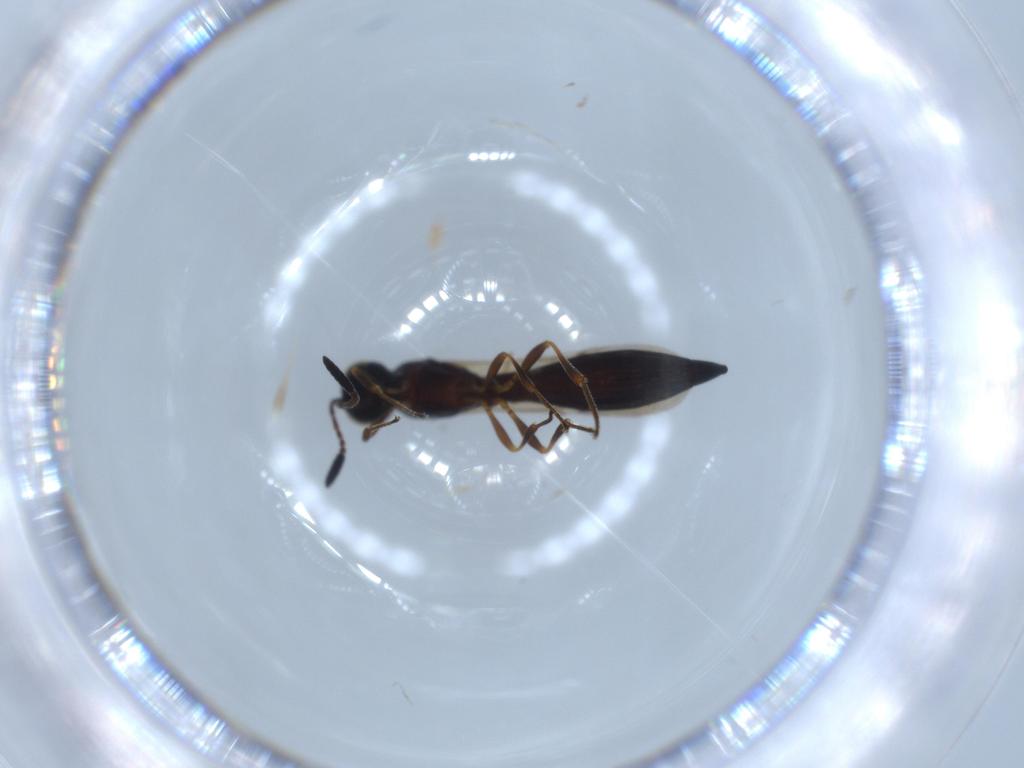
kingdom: Animalia
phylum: Arthropoda
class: Insecta
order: Hymenoptera
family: Scelionidae
